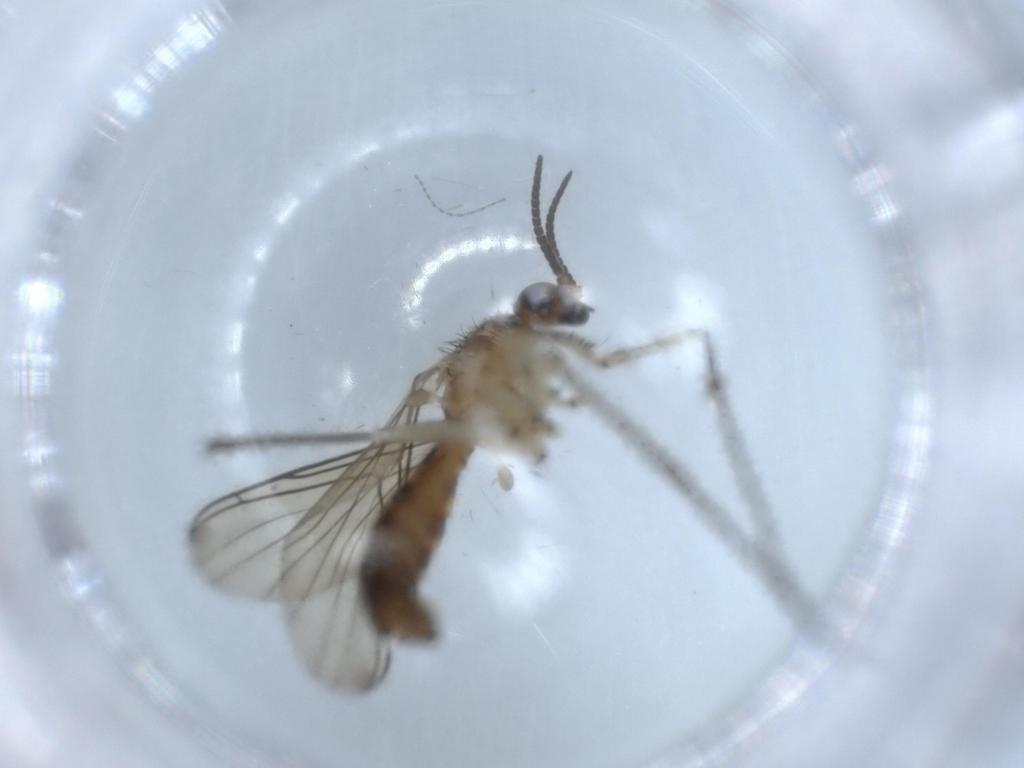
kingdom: Animalia
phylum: Arthropoda
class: Insecta
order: Diptera
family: Keroplatidae
